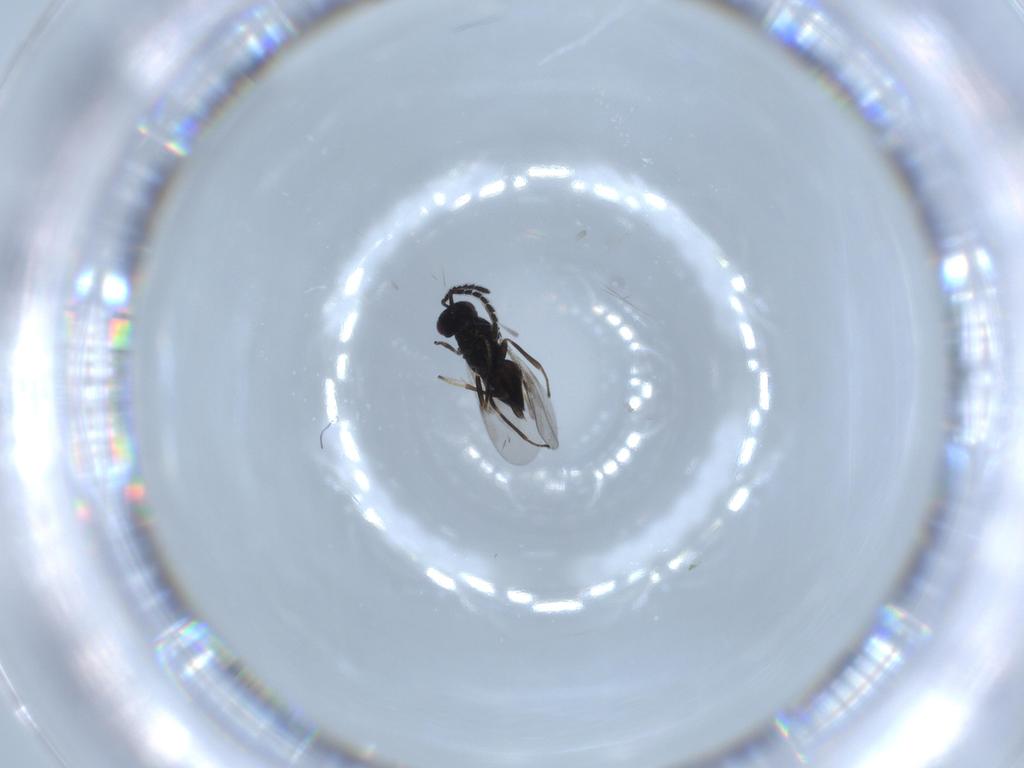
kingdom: Animalia
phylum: Arthropoda
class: Insecta
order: Hymenoptera
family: Encyrtidae
